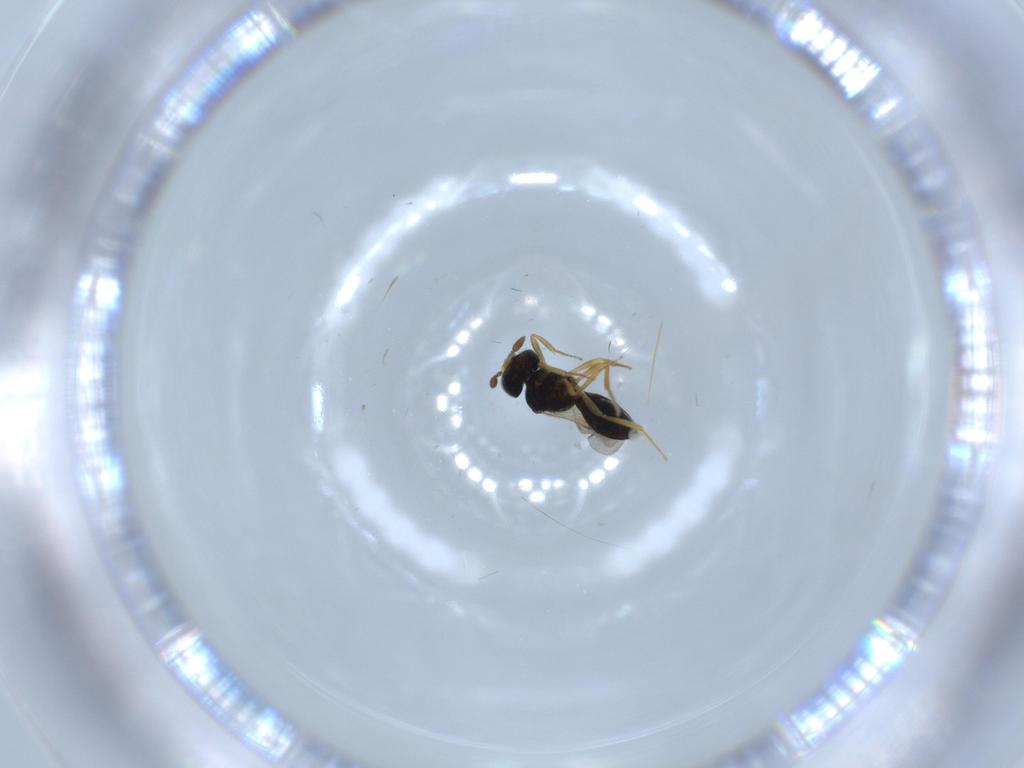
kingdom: Animalia
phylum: Arthropoda
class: Insecta
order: Hymenoptera
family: Scelionidae
